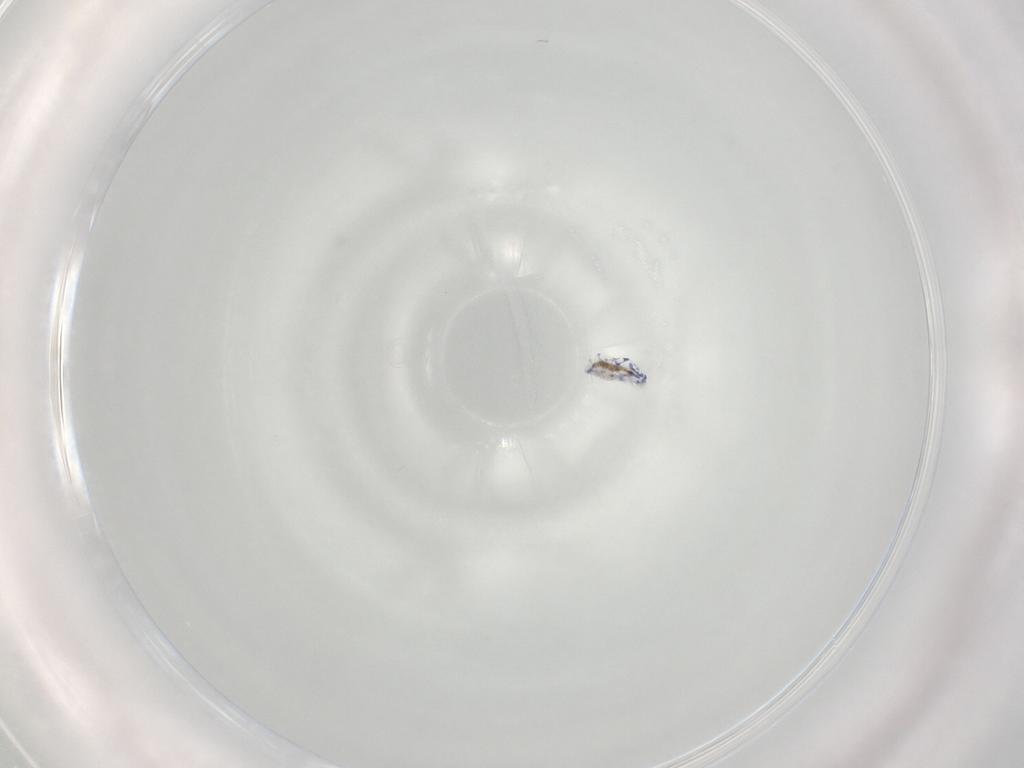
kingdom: Animalia
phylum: Arthropoda
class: Collembola
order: Entomobryomorpha
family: Entomobryidae
